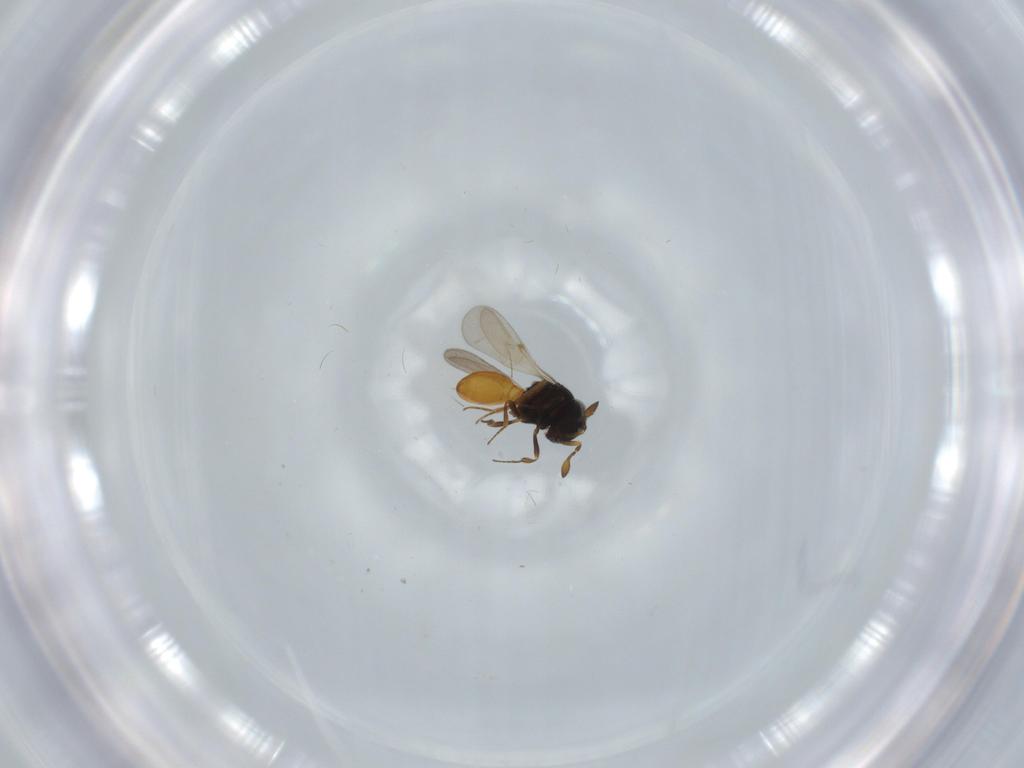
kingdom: Animalia
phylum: Arthropoda
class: Insecta
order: Hymenoptera
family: Scelionidae
